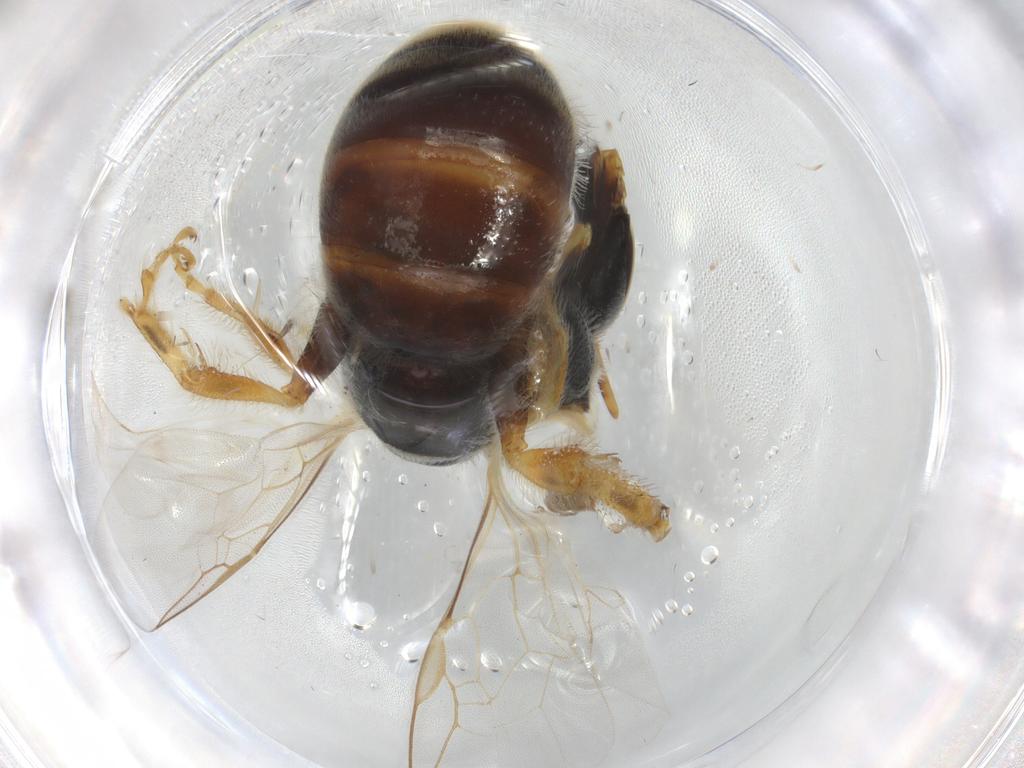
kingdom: Animalia
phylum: Arthropoda
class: Insecta
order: Hymenoptera
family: Halictidae
